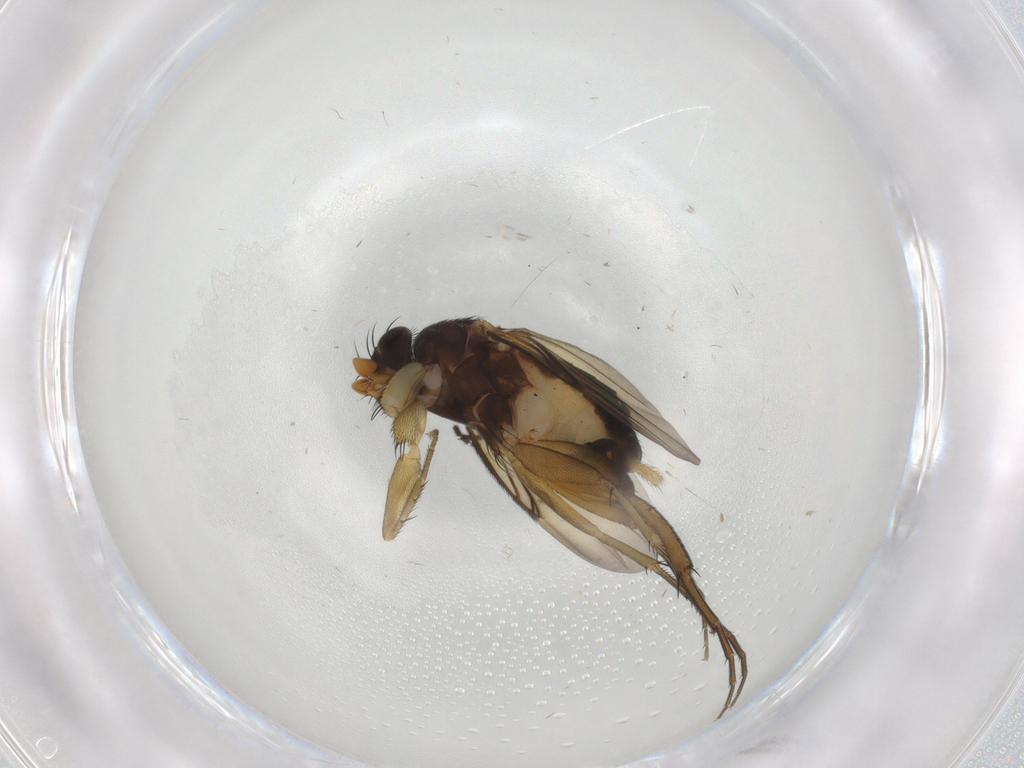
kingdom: Animalia
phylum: Arthropoda
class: Insecta
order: Diptera
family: Phoridae
